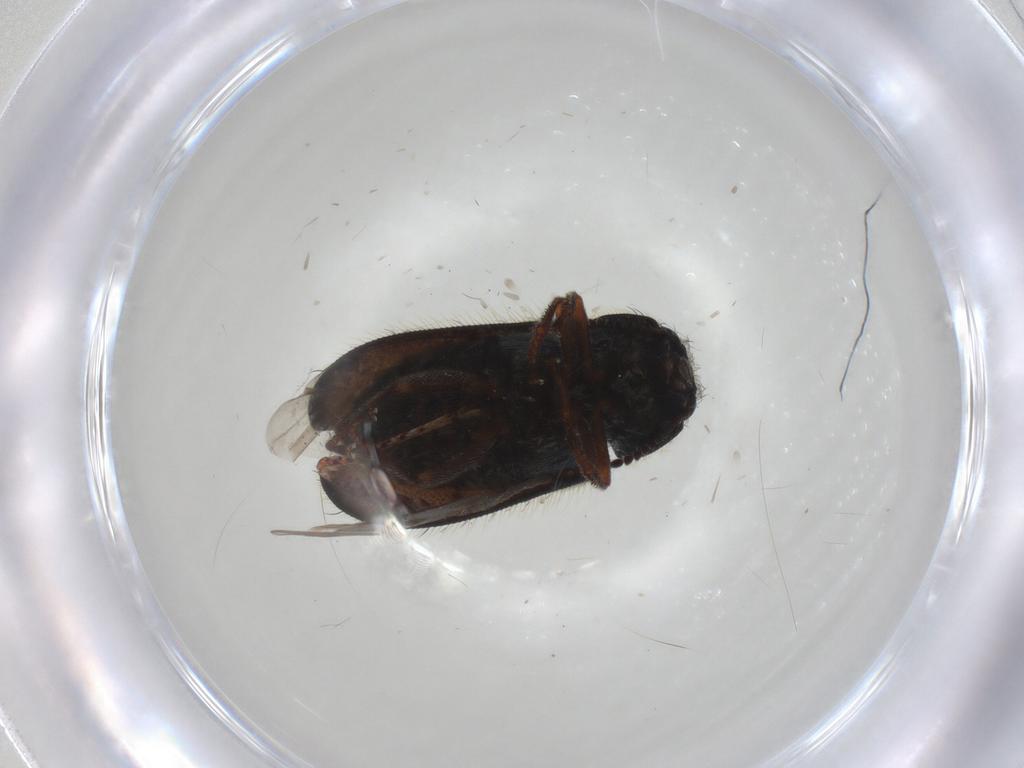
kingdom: Animalia
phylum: Arthropoda
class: Insecta
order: Coleoptera
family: Melyridae
